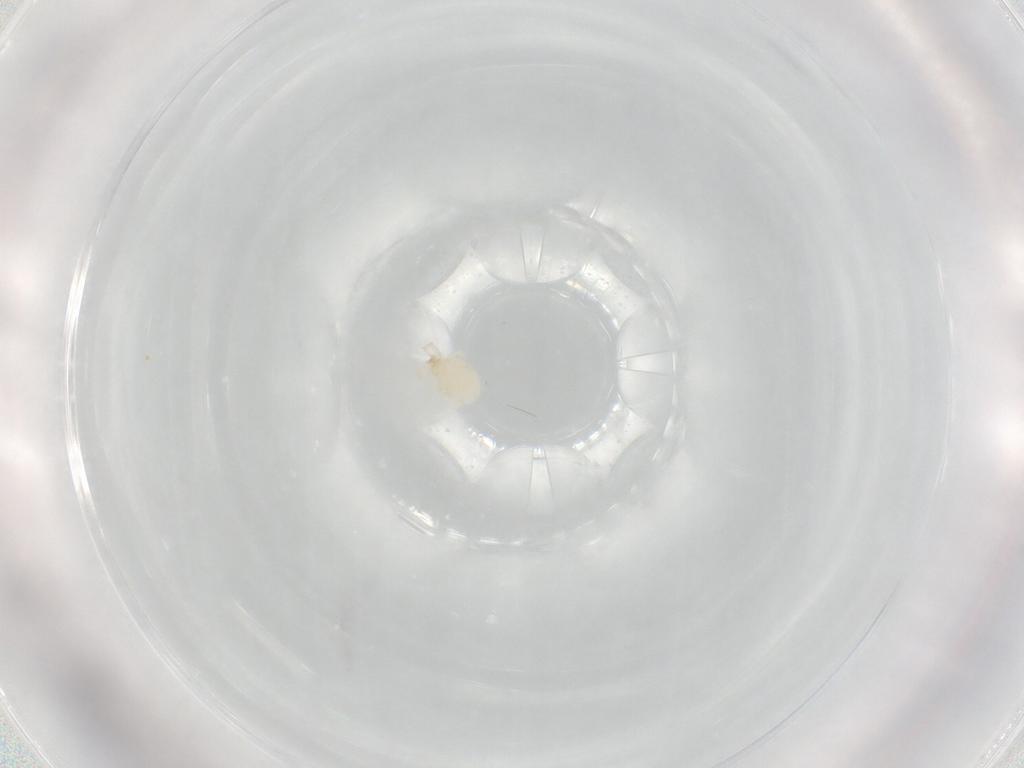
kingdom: Animalia
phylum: Arthropoda
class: Arachnida
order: Trombidiformes
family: Erythraeidae
